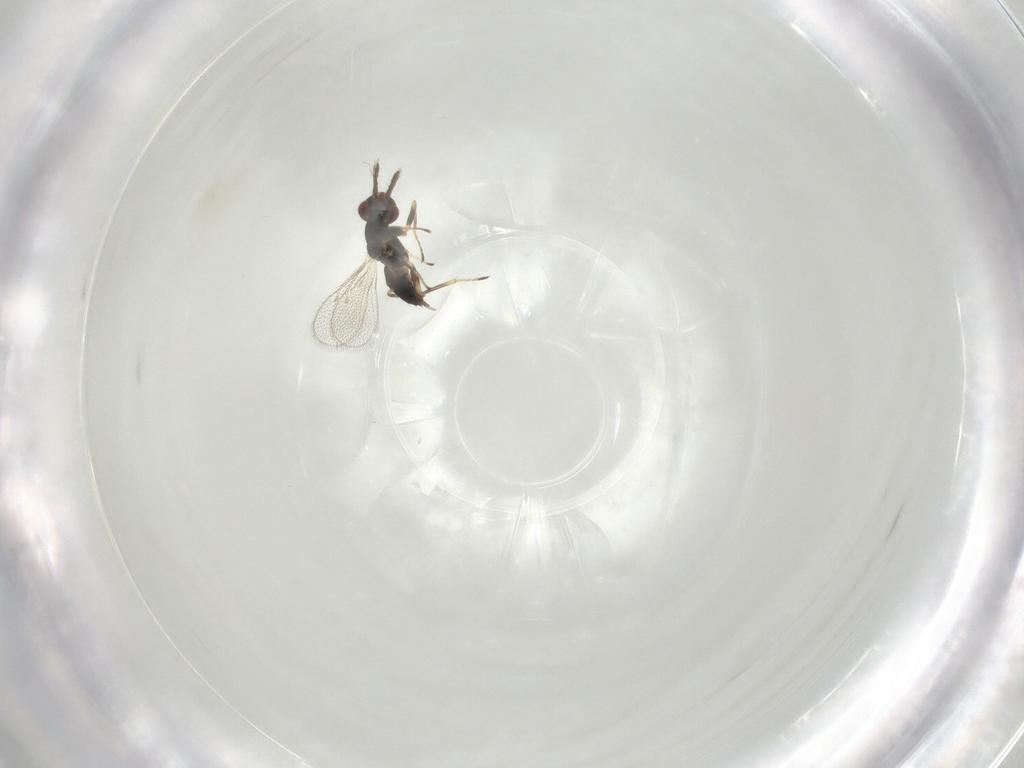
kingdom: Animalia
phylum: Arthropoda
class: Insecta
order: Hymenoptera
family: Eulophidae
